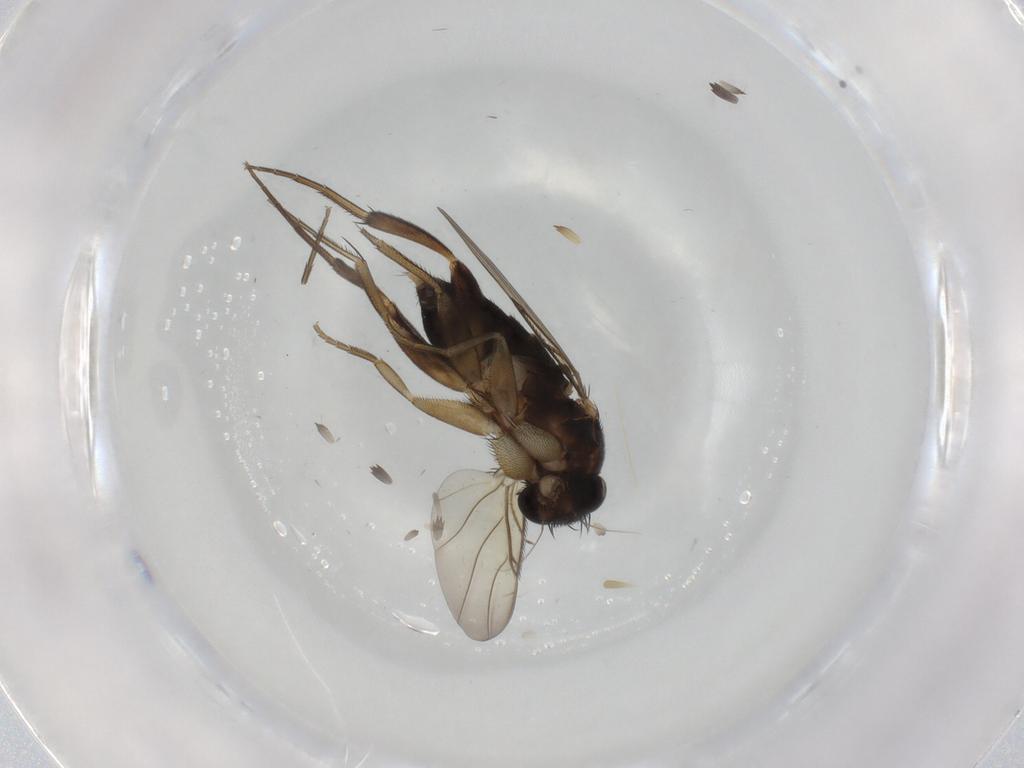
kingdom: Animalia
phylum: Arthropoda
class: Insecta
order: Diptera
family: Phoridae
